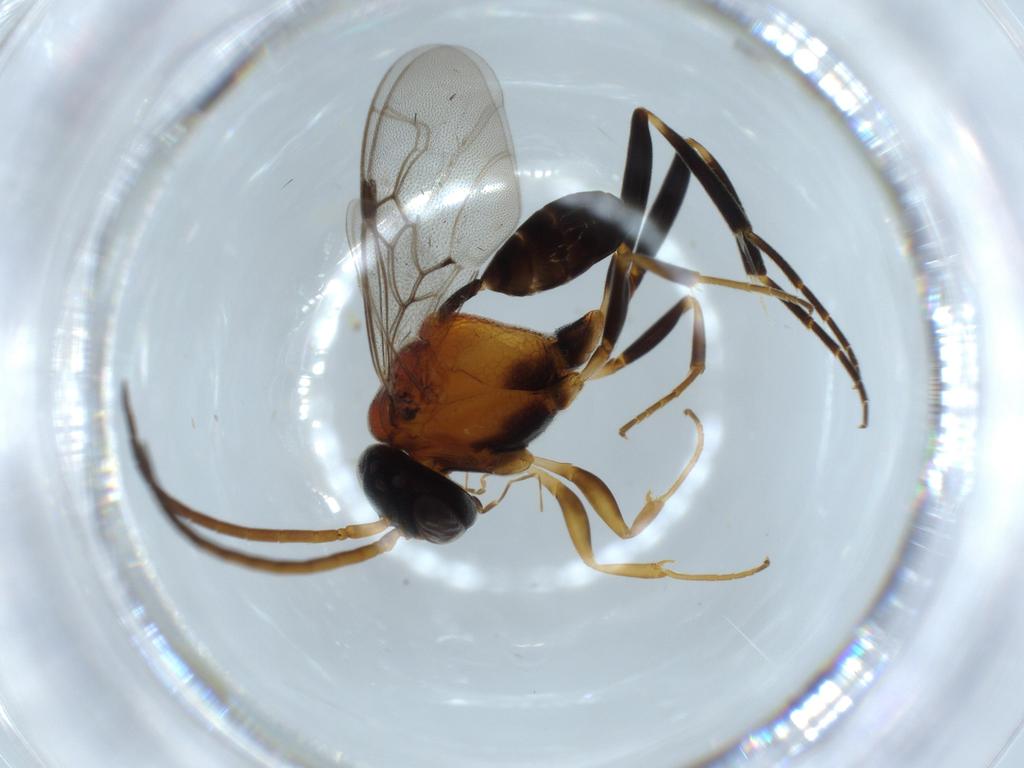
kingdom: Animalia
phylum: Arthropoda
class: Insecta
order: Hymenoptera
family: Evaniidae
